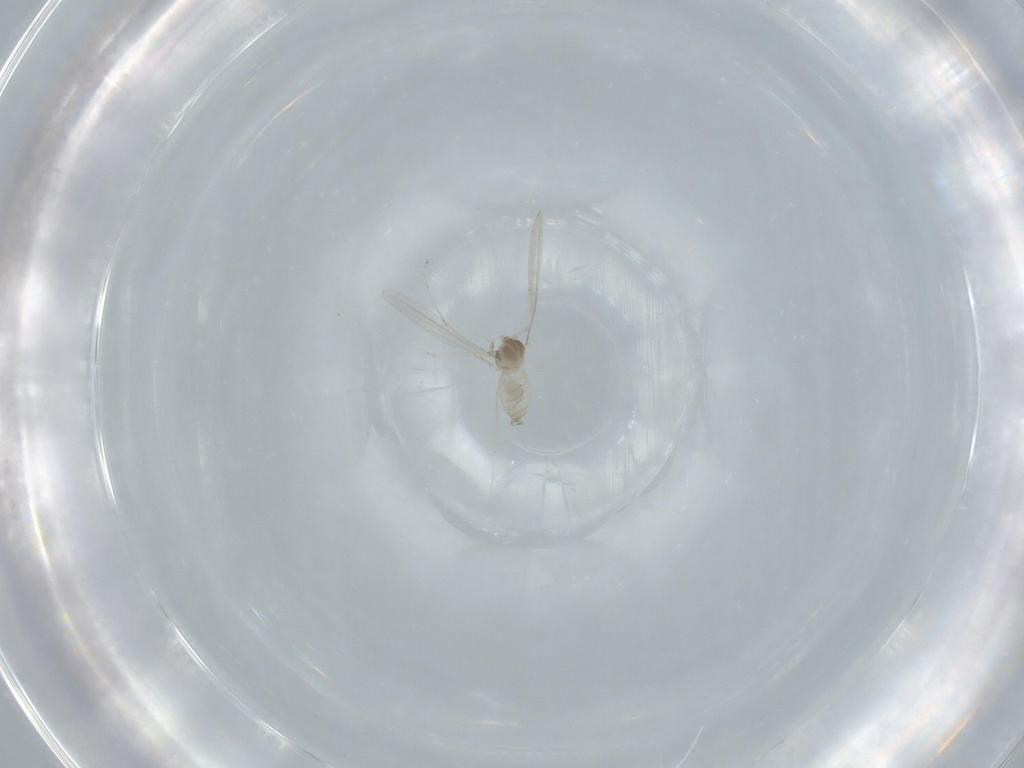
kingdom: Animalia
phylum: Arthropoda
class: Insecta
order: Diptera
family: Cecidomyiidae
